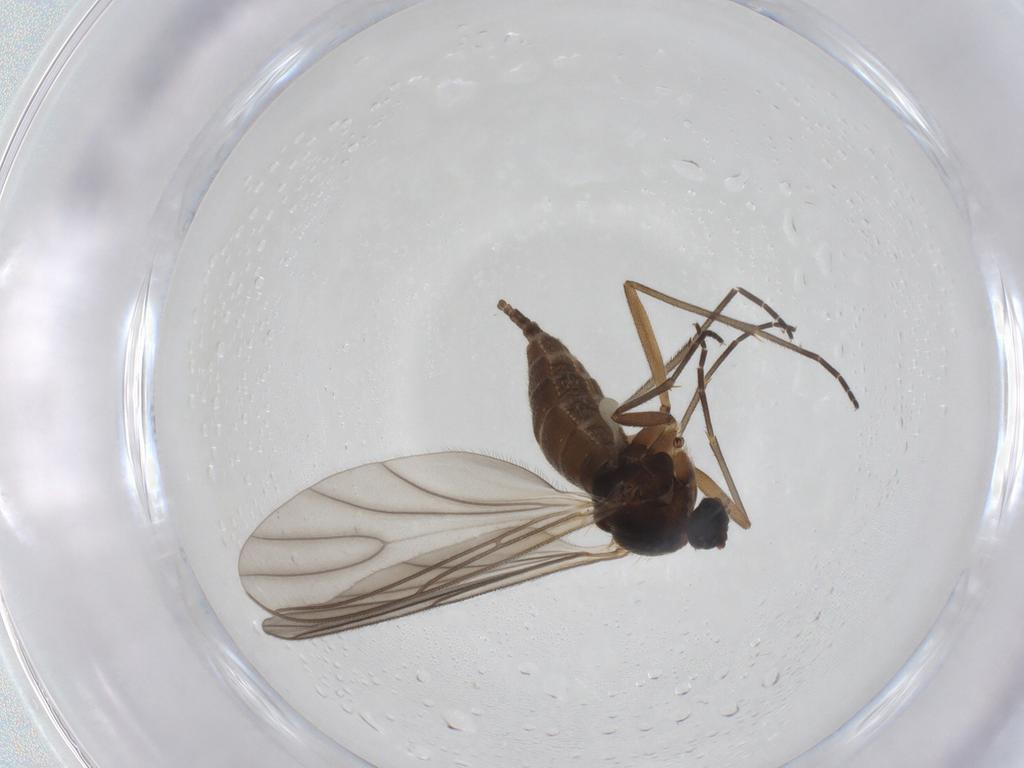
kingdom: Animalia
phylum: Arthropoda
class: Insecta
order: Diptera
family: Sciaridae
